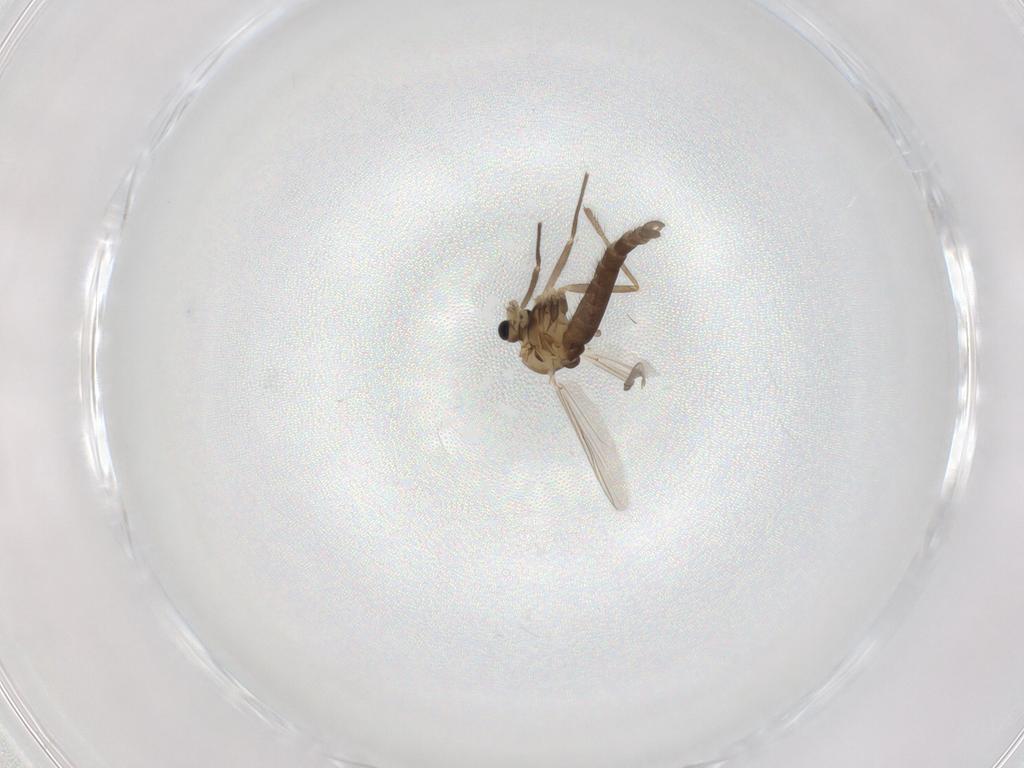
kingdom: Animalia
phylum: Arthropoda
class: Insecta
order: Diptera
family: Chironomidae
